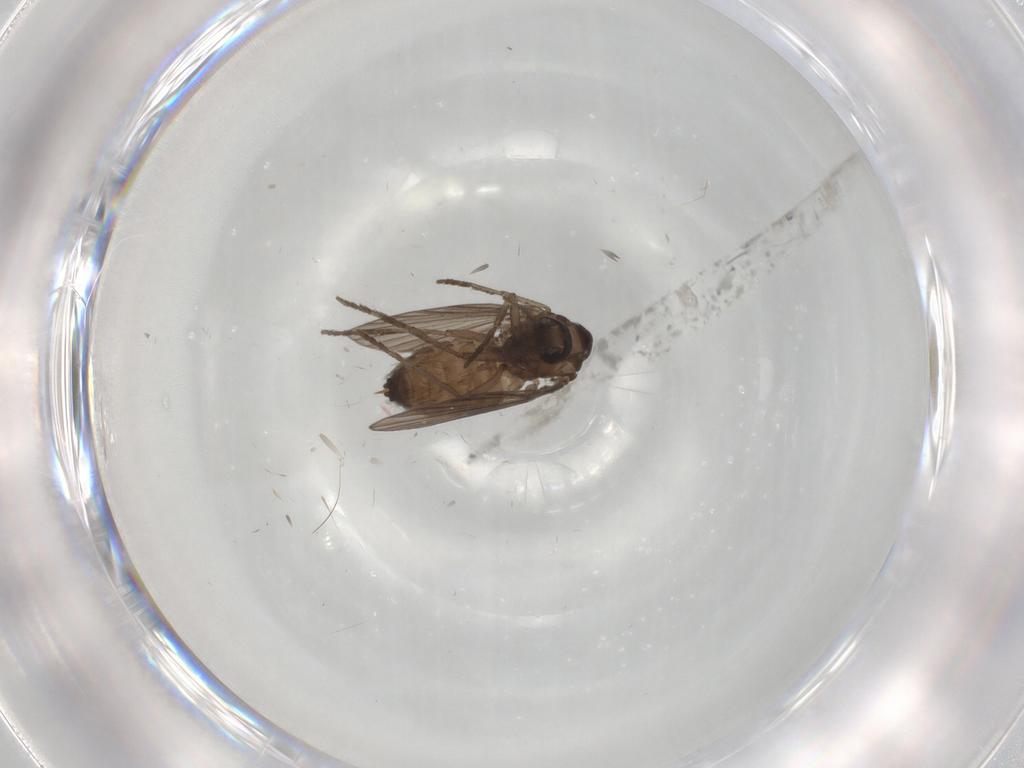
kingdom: Animalia
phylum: Arthropoda
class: Insecta
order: Diptera
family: Psychodidae
